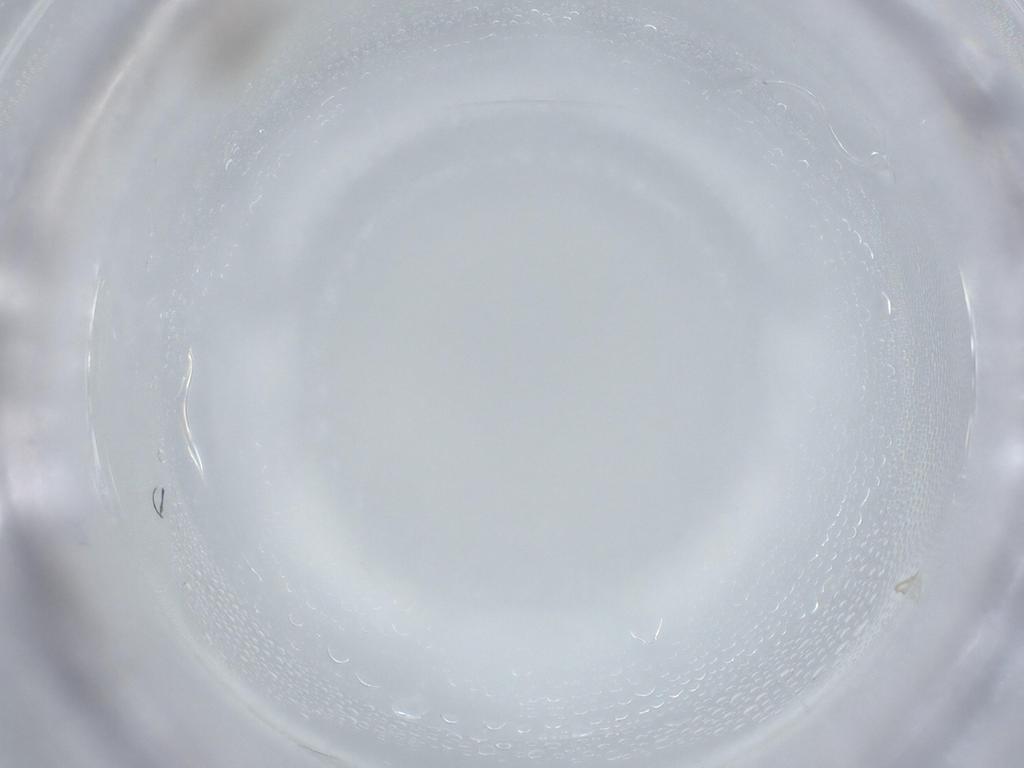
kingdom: Animalia
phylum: Arthropoda
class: Insecta
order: Diptera
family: Cecidomyiidae
